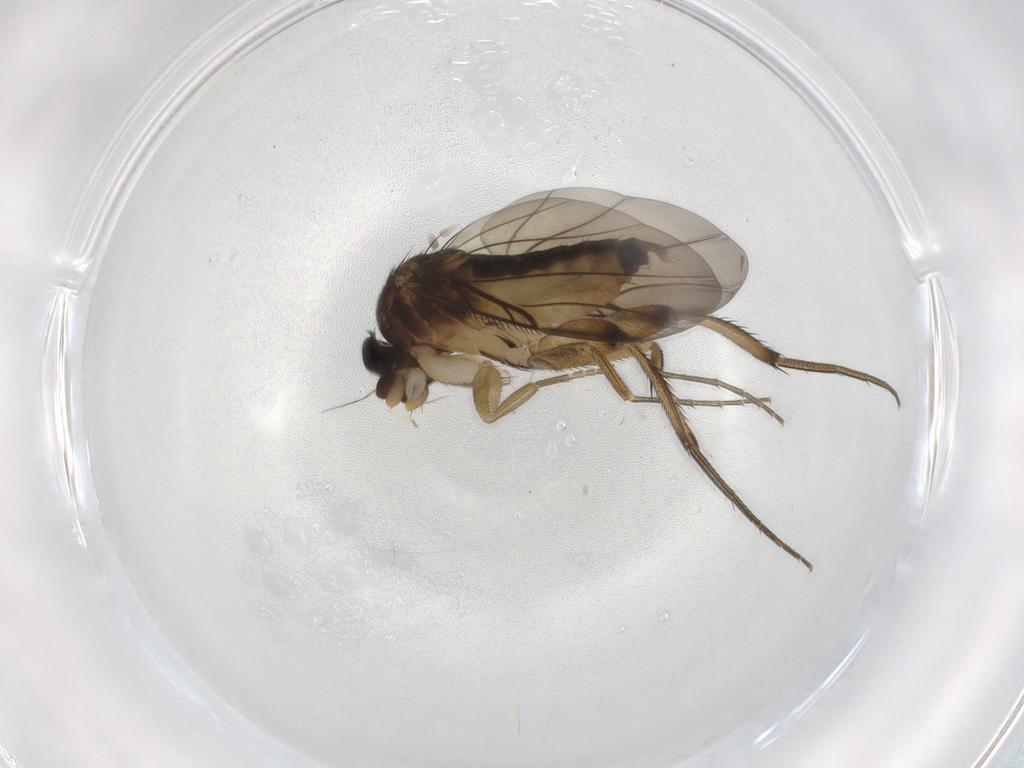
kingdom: Animalia
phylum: Arthropoda
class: Insecta
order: Diptera
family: Phoridae
